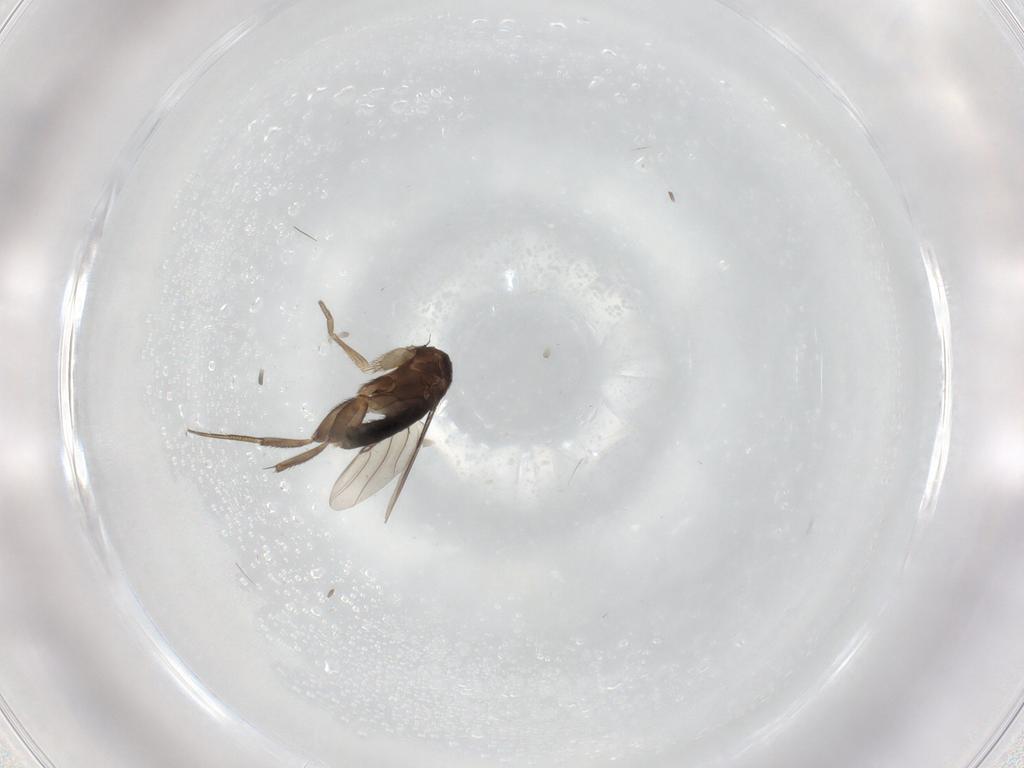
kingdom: Animalia
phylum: Arthropoda
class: Insecta
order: Diptera
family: Phoridae
